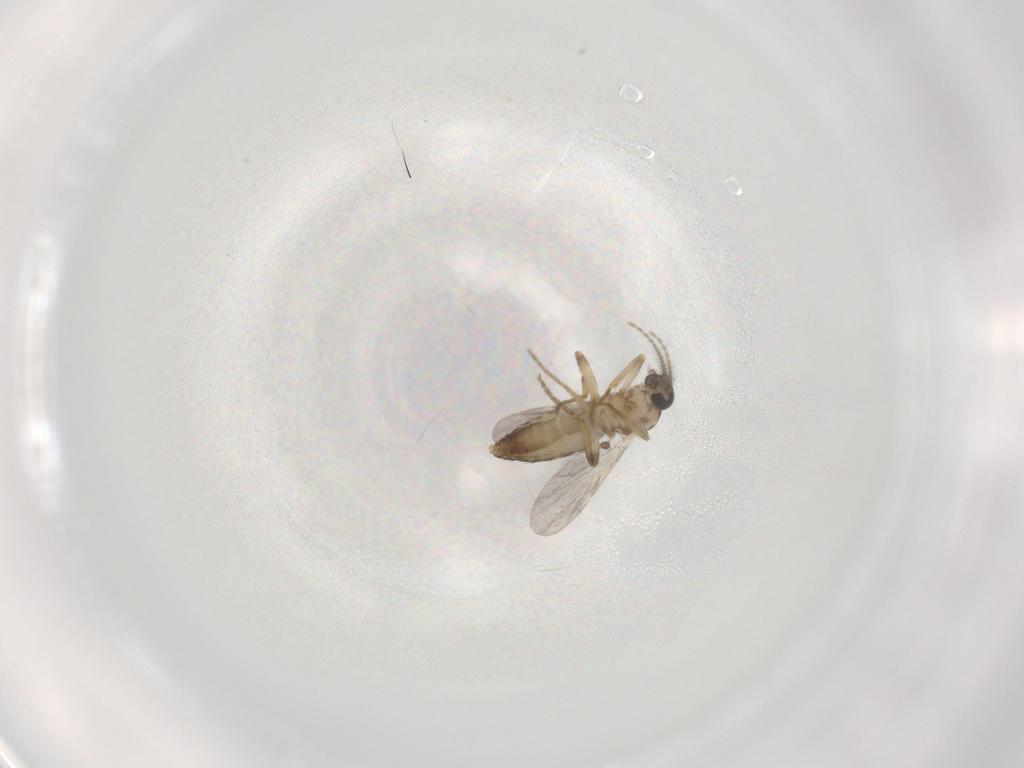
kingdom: Animalia
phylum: Arthropoda
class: Insecta
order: Diptera
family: Ceratopogonidae
